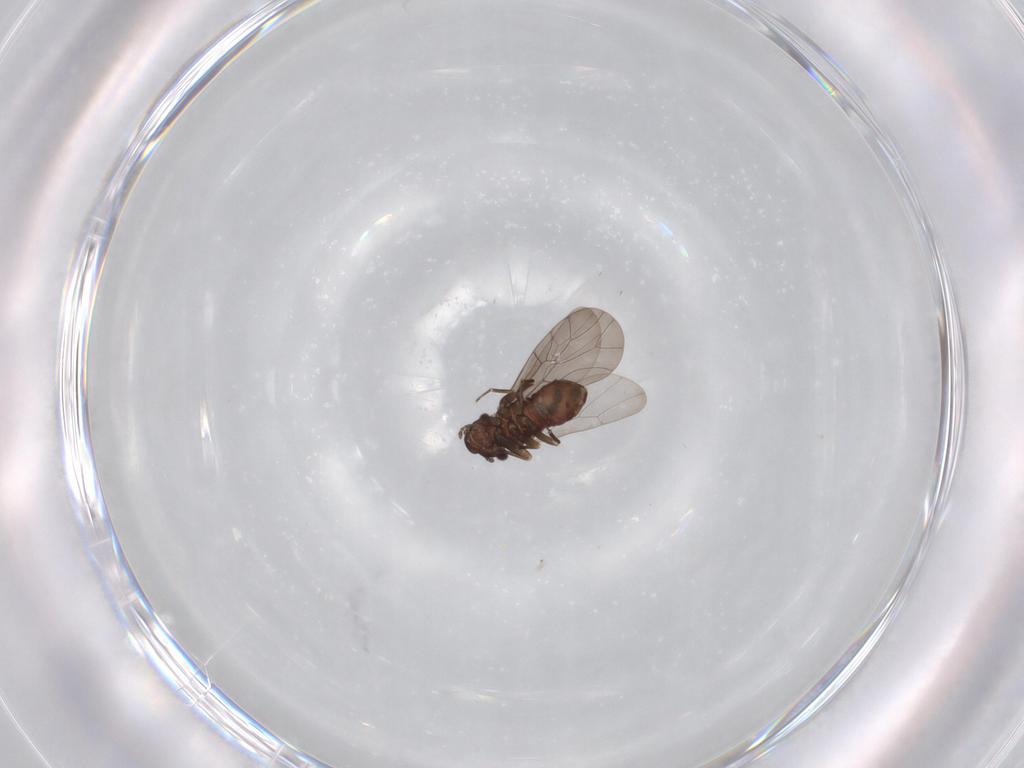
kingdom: Animalia
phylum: Arthropoda
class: Insecta
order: Psocodea
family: Lepidopsocidae
